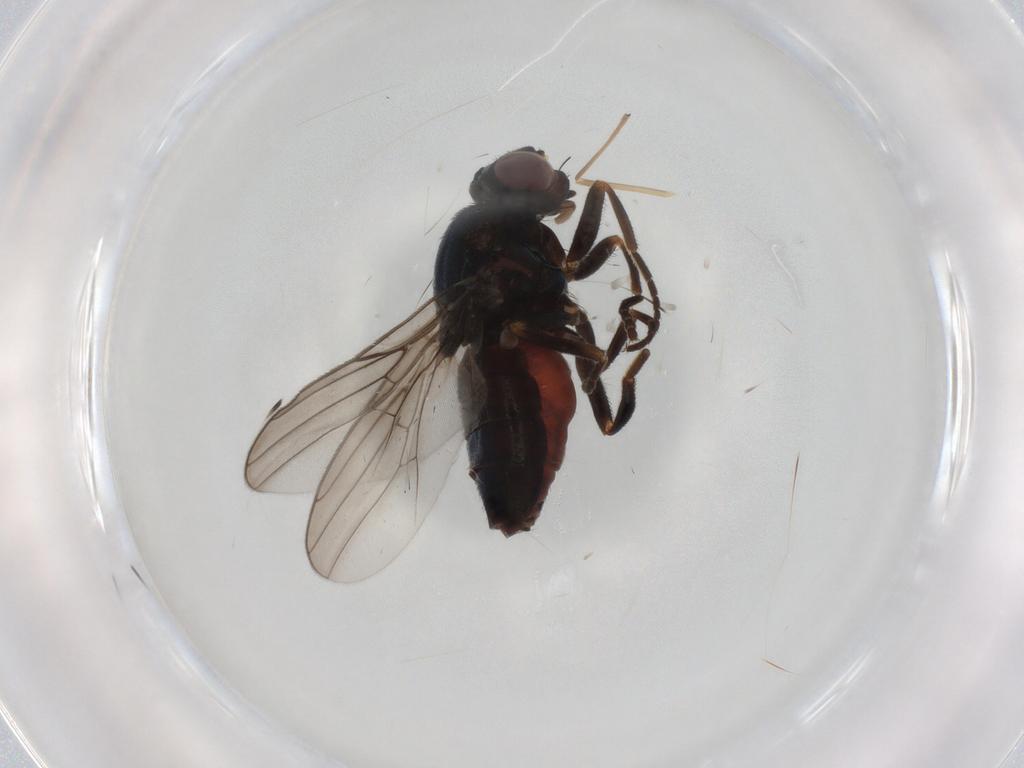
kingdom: Animalia
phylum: Arthropoda
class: Insecta
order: Diptera
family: Chloropidae
